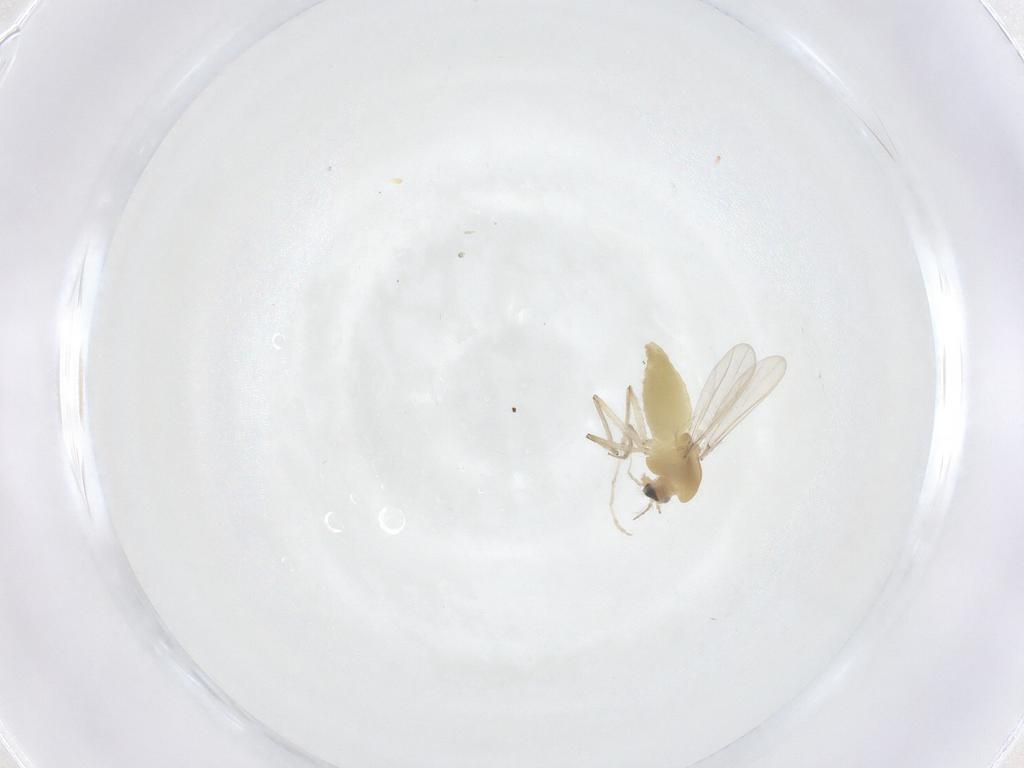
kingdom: Animalia
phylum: Arthropoda
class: Insecta
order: Diptera
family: Chironomidae
